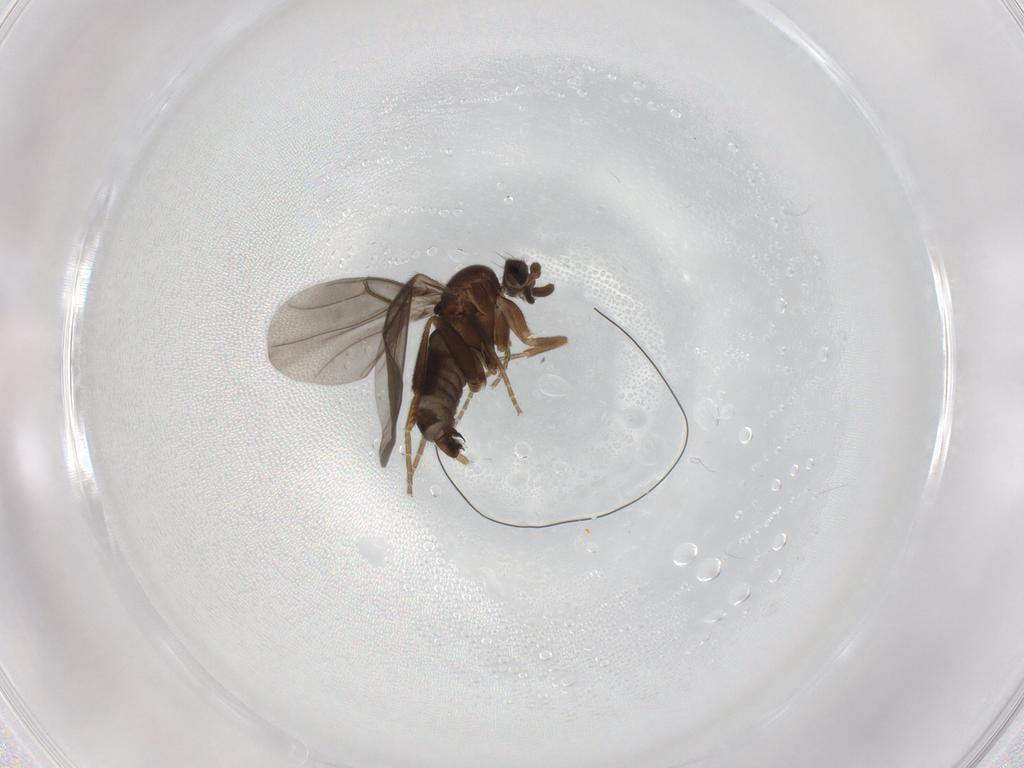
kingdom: Animalia
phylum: Arthropoda
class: Insecta
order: Diptera
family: Phoridae
